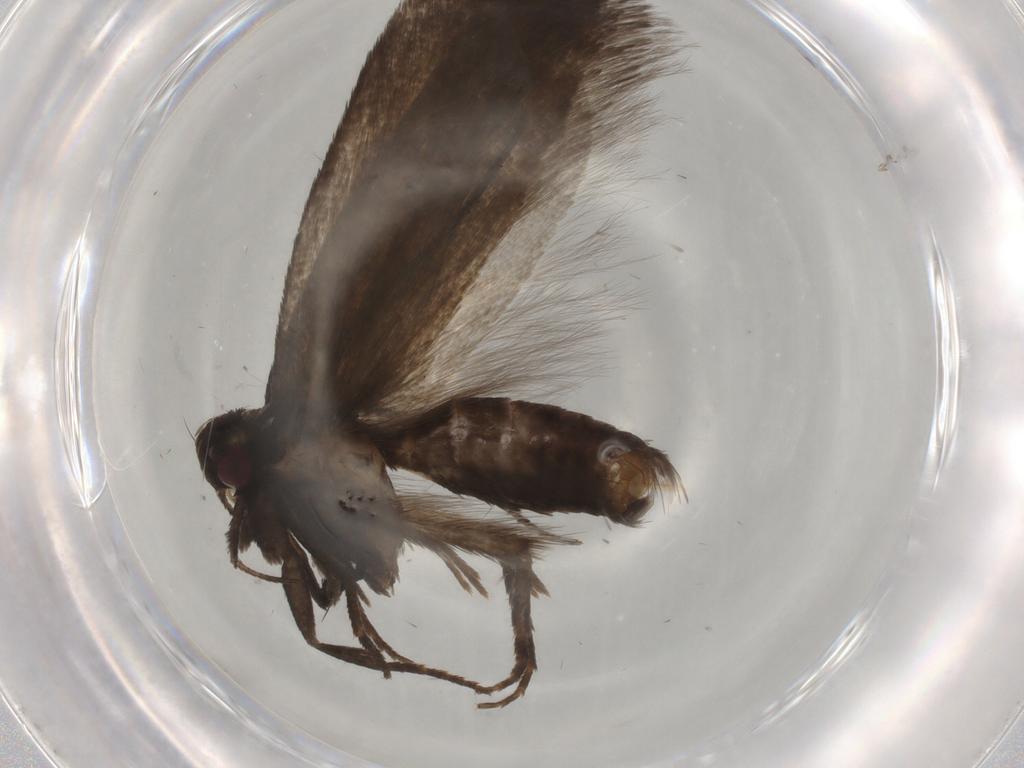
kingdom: Animalia
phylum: Arthropoda
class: Insecta
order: Lepidoptera
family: Gelechiidae
